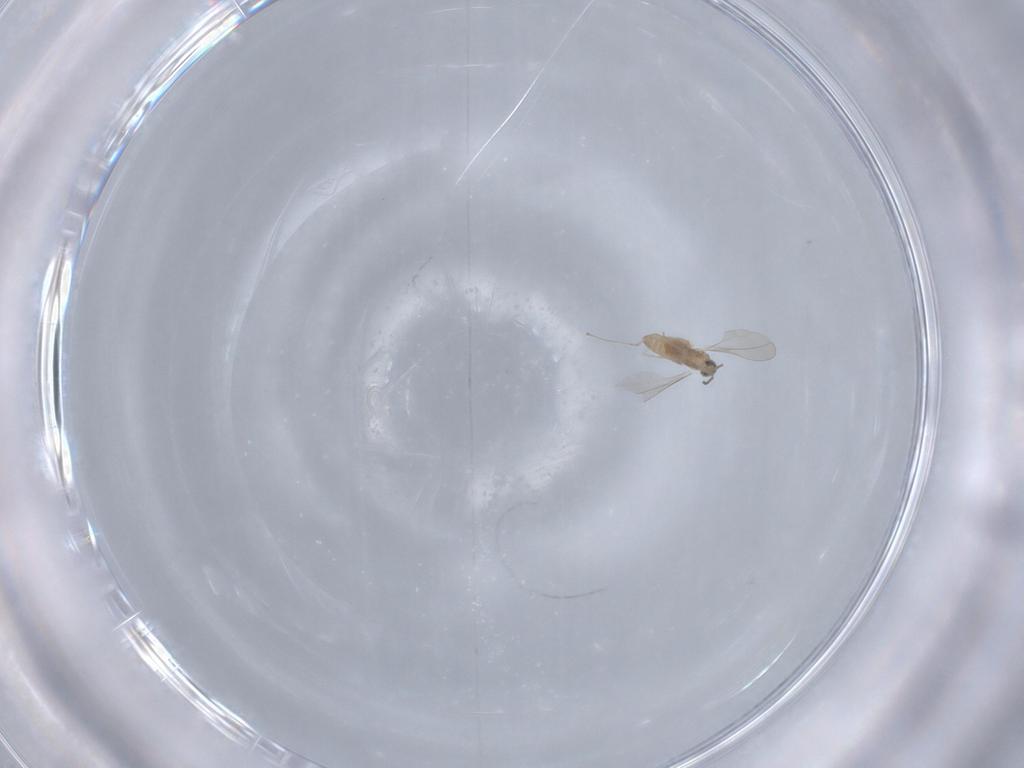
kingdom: Animalia
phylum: Arthropoda
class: Insecta
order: Diptera
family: Cecidomyiidae
